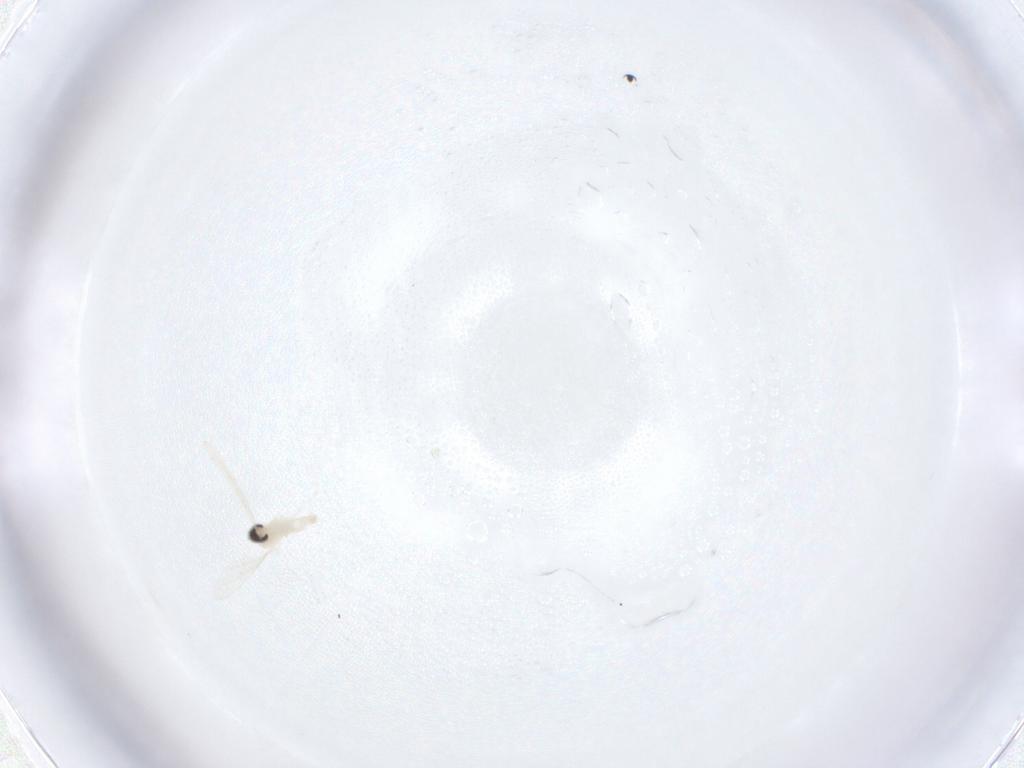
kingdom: Animalia
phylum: Arthropoda
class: Insecta
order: Diptera
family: Cecidomyiidae
